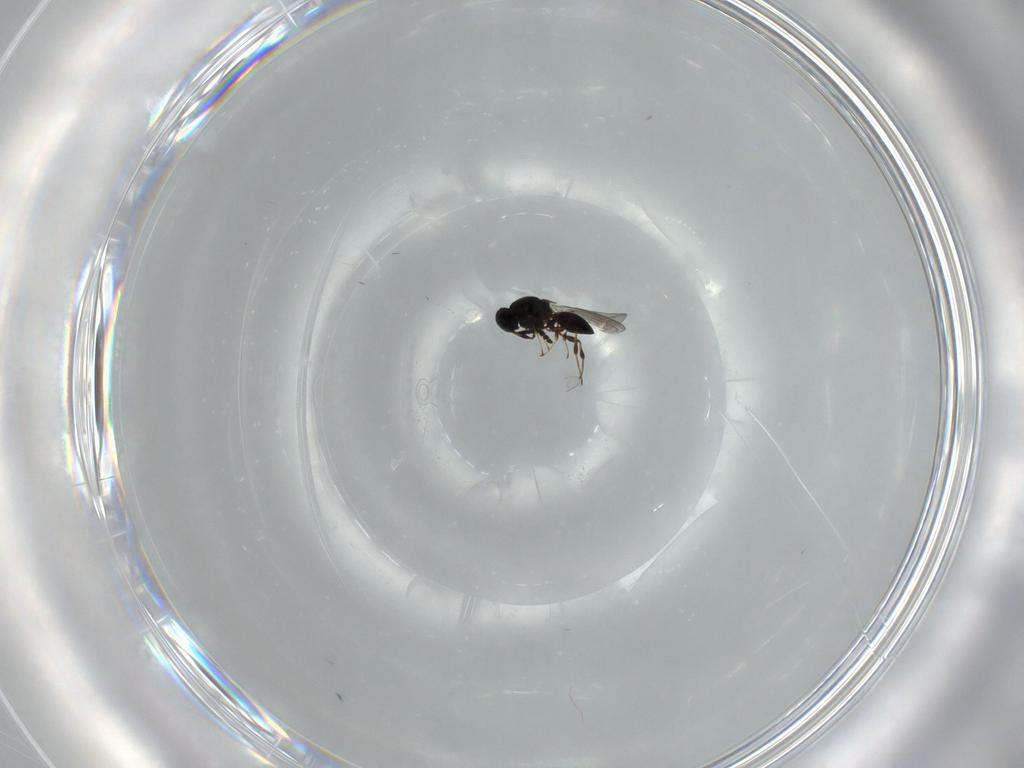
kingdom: Animalia
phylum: Arthropoda
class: Insecta
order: Hymenoptera
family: Platygastridae
